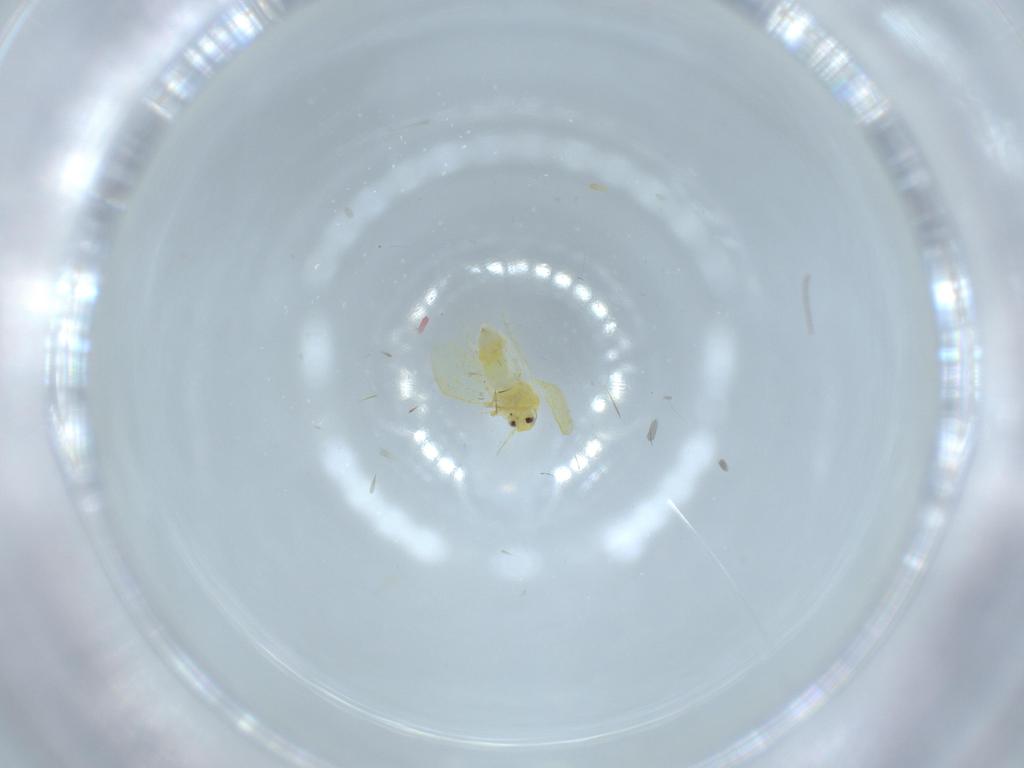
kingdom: Animalia
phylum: Arthropoda
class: Insecta
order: Hemiptera
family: Aleyrodidae
